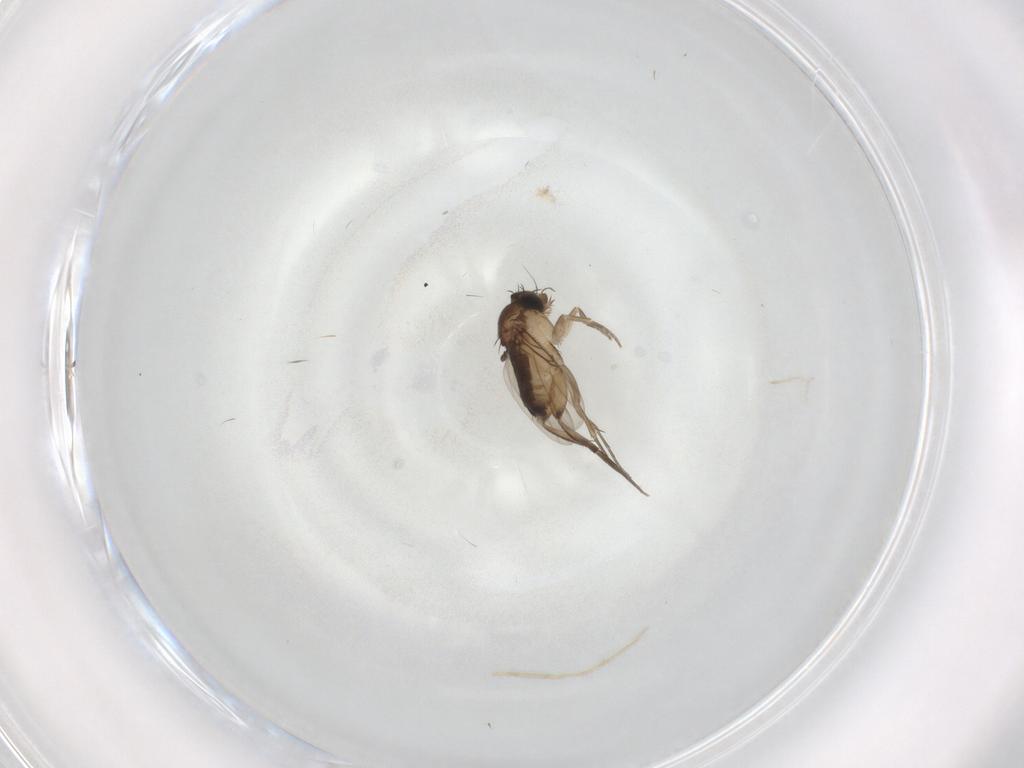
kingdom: Animalia
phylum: Arthropoda
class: Insecta
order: Diptera
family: Phoridae
